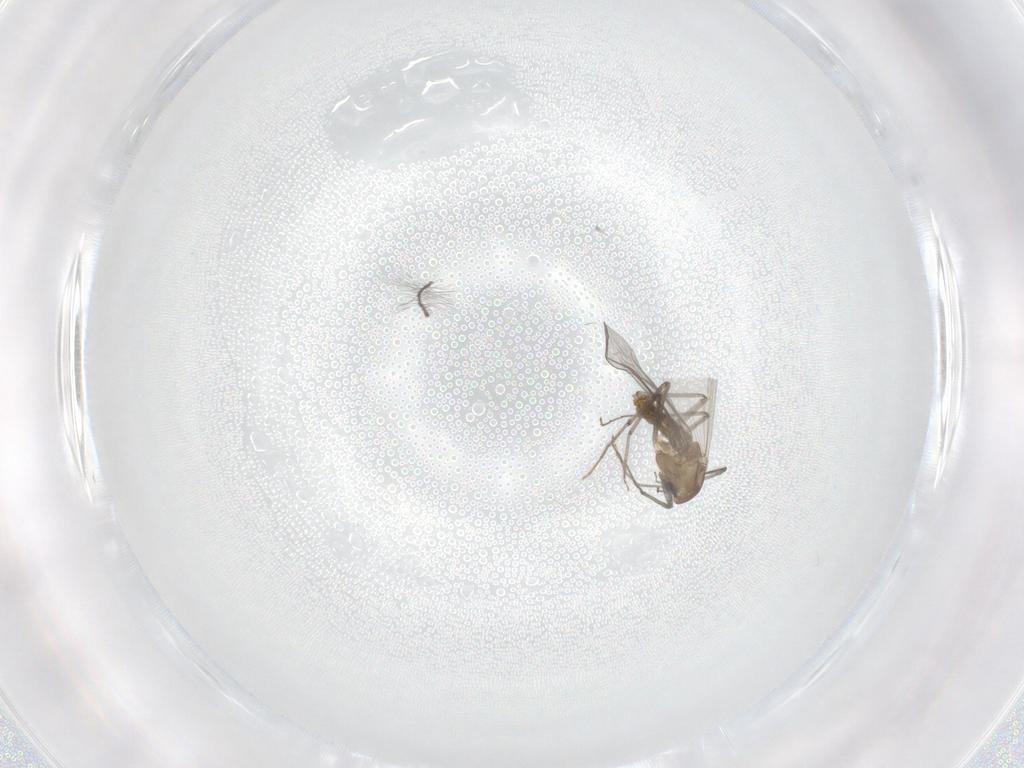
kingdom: Animalia
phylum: Arthropoda
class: Insecta
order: Diptera
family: Chironomidae
